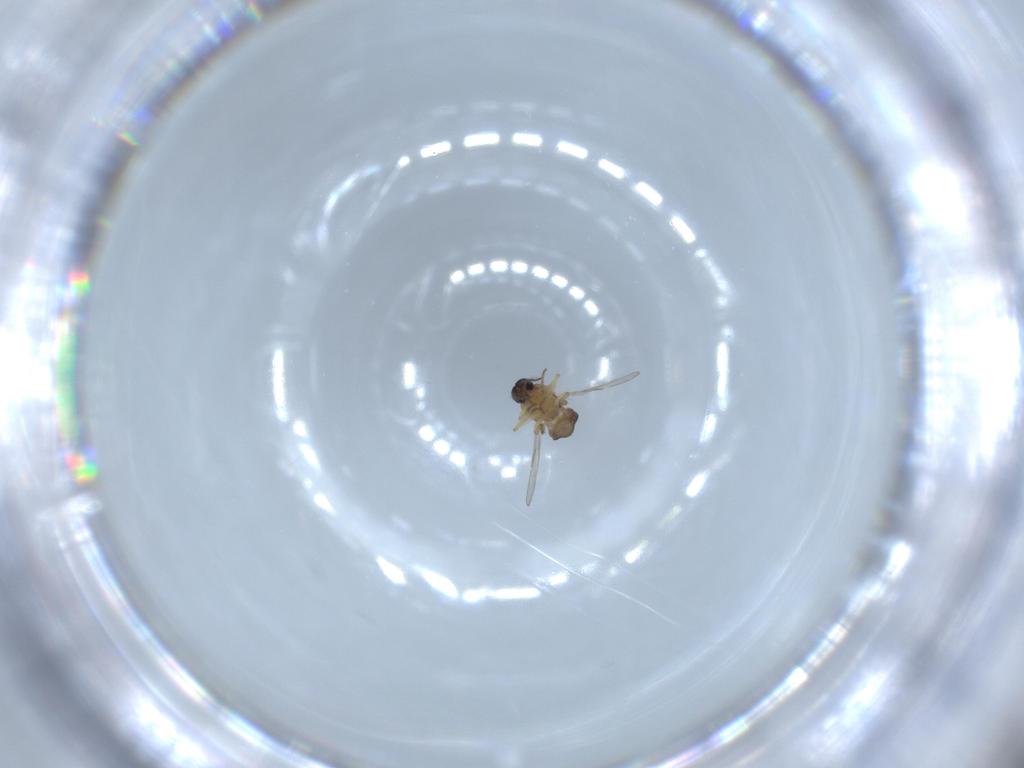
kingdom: Animalia
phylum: Arthropoda
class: Insecta
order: Diptera
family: Ceratopogonidae
